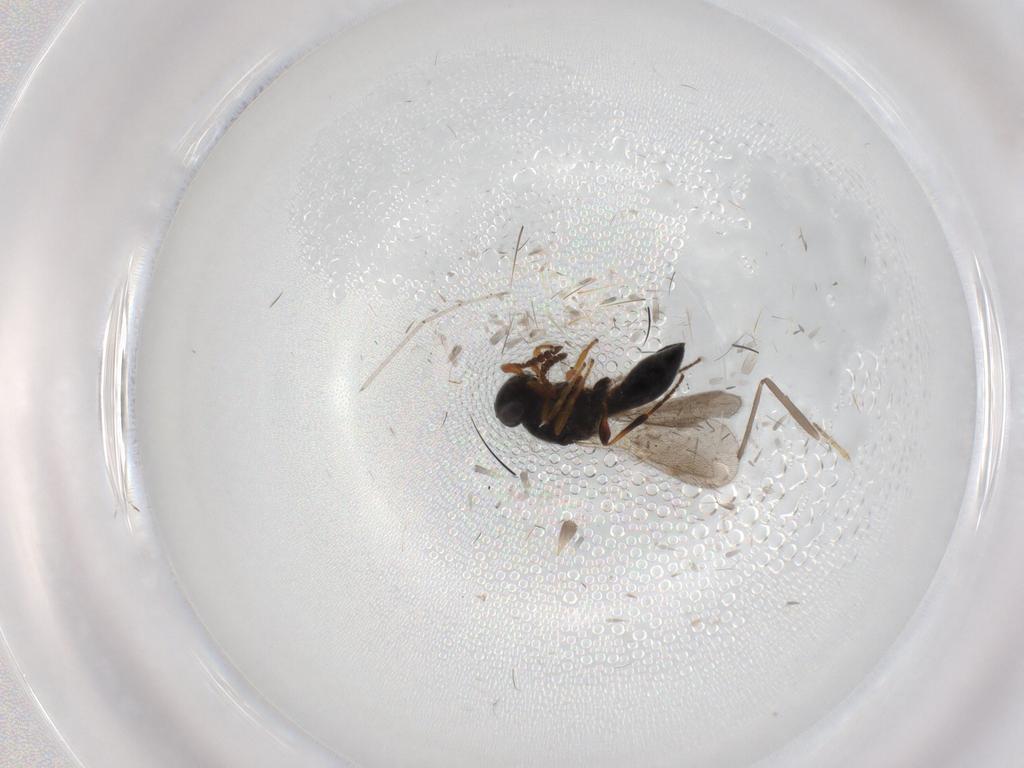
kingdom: Animalia
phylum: Arthropoda
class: Insecta
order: Hymenoptera
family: Platygastridae
